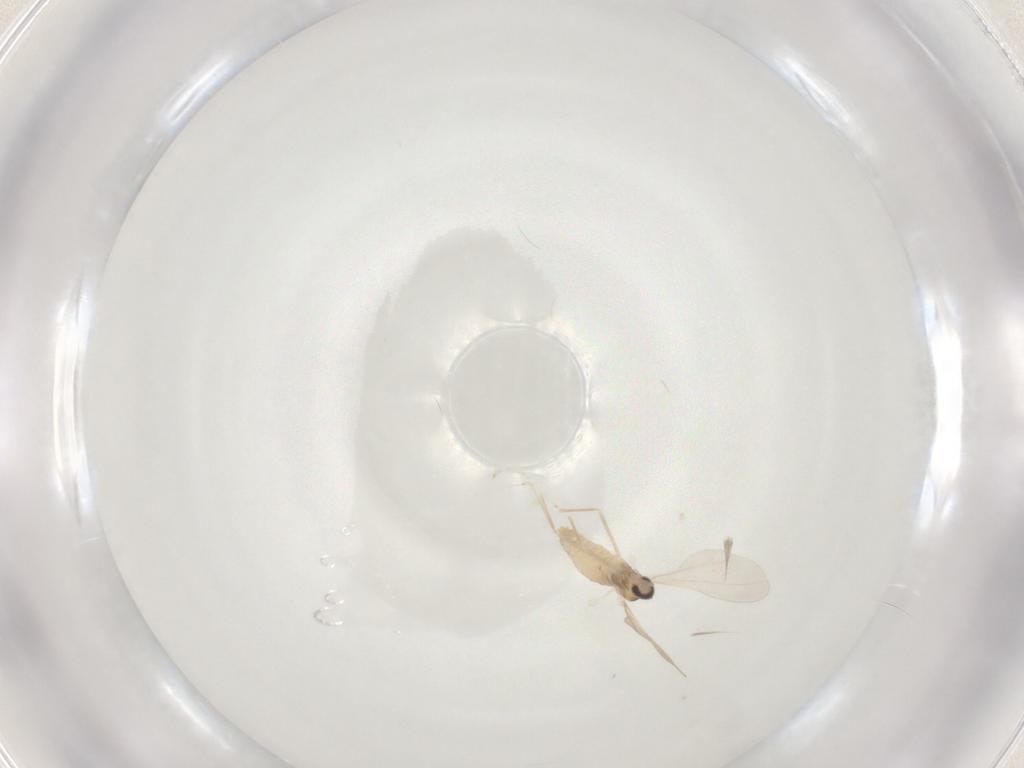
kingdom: Animalia
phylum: Arthropoda
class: Insecta
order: Diptera
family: Cecidomyiidae
